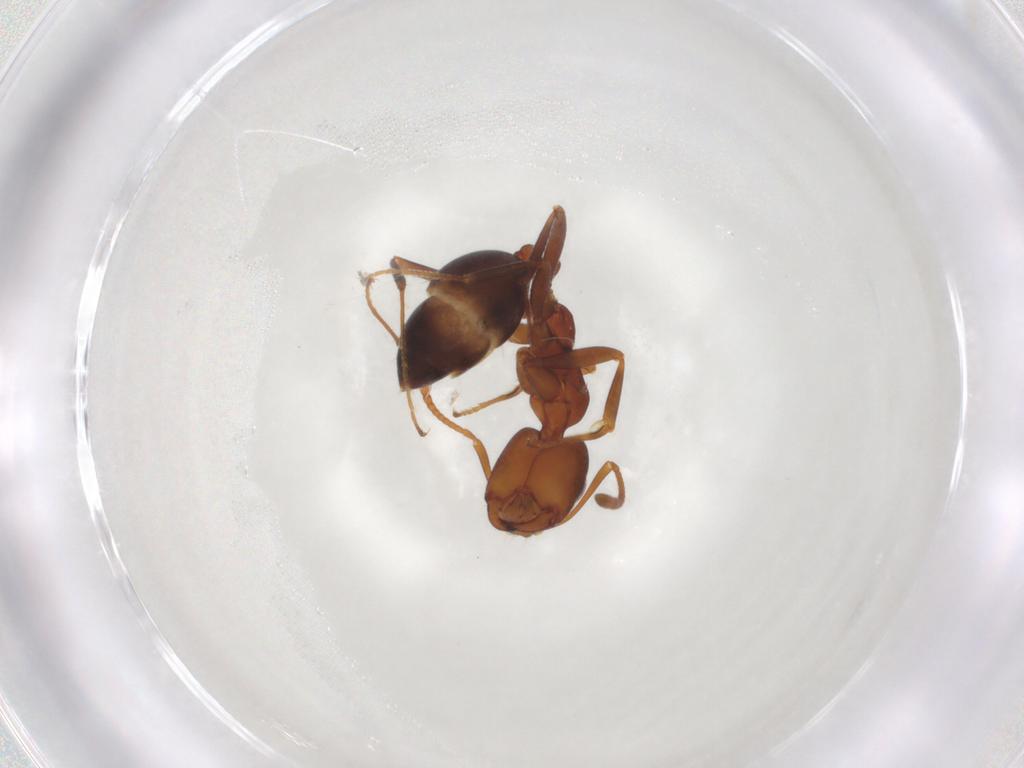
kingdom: Animalia
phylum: Arthropoda
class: Insecta
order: Hymenoptera
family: Formicidae
